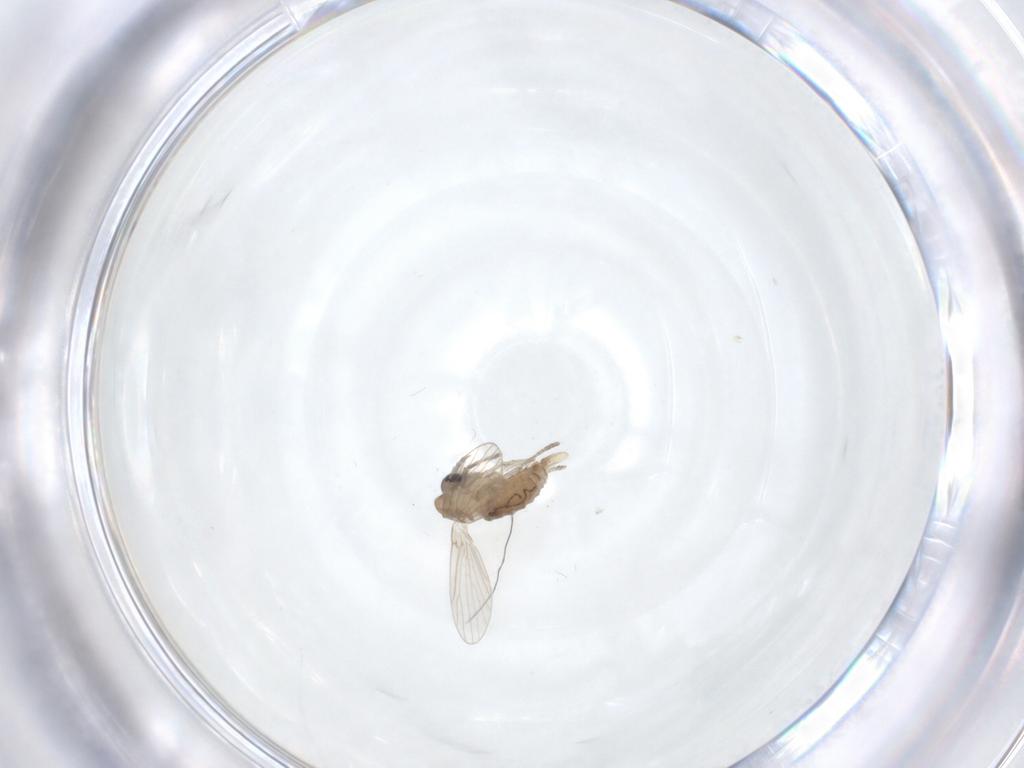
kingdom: Animalia
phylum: Arthropoda
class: Insecta
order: Diptera
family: Psychodidae
